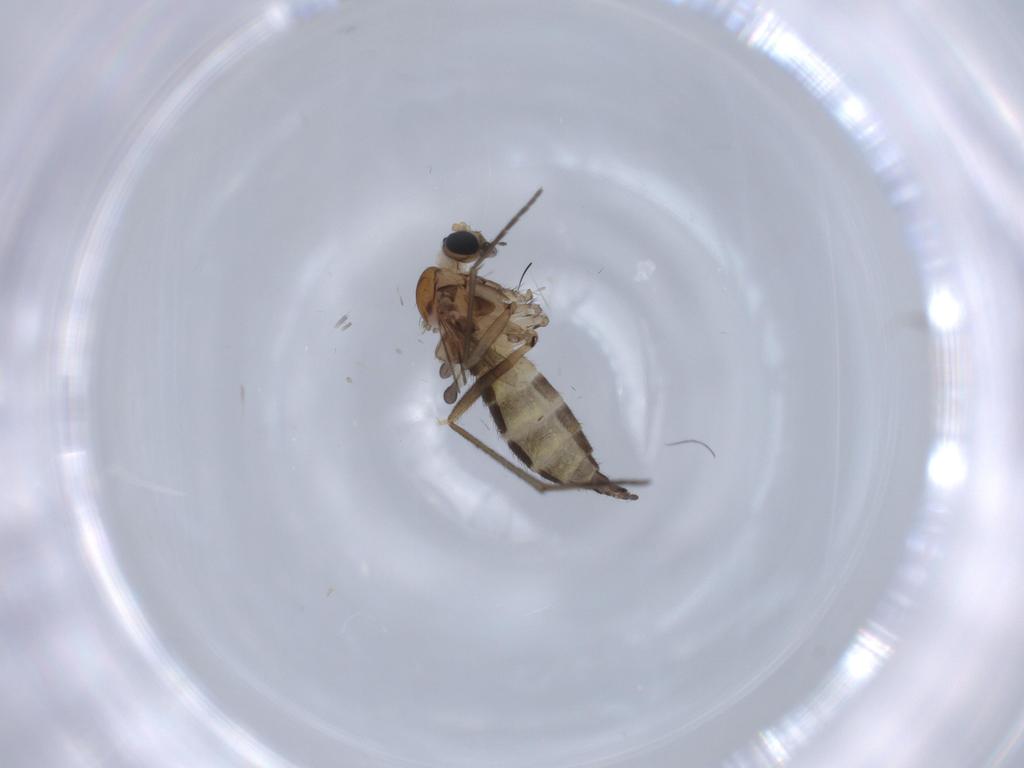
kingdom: Animalia
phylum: Arthropoda
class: Insecta
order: Diptera
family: Sciaridae
